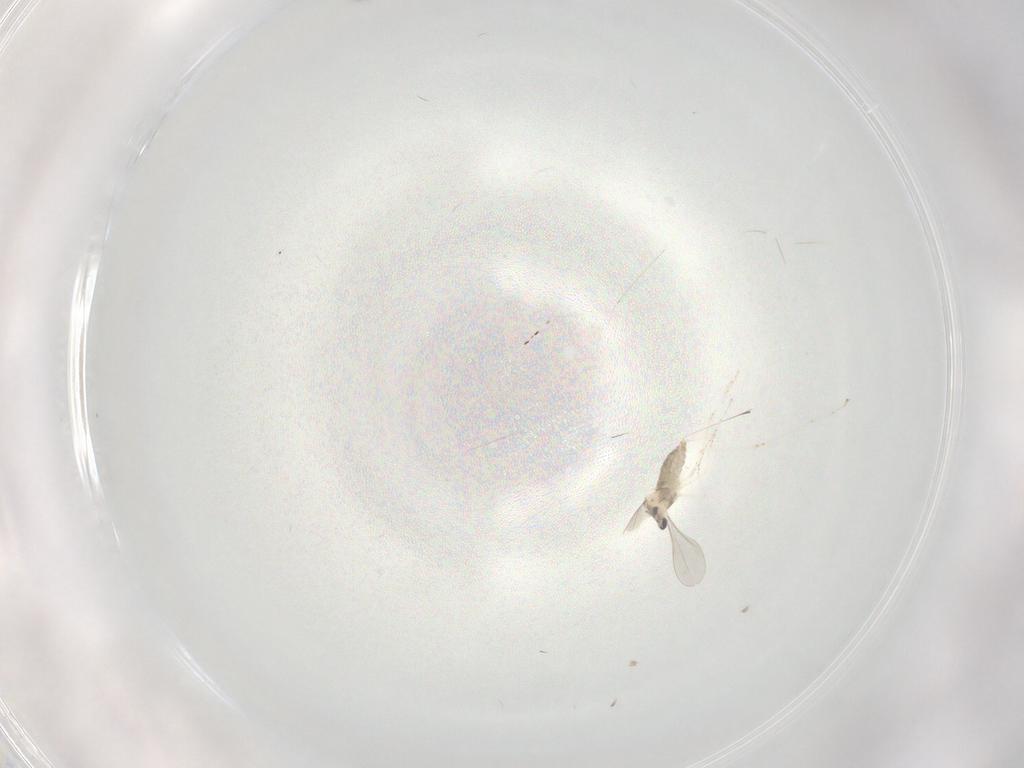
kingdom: Animalia
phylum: Arthropoda
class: Insecta
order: Diptera
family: Cecidomyiidae
